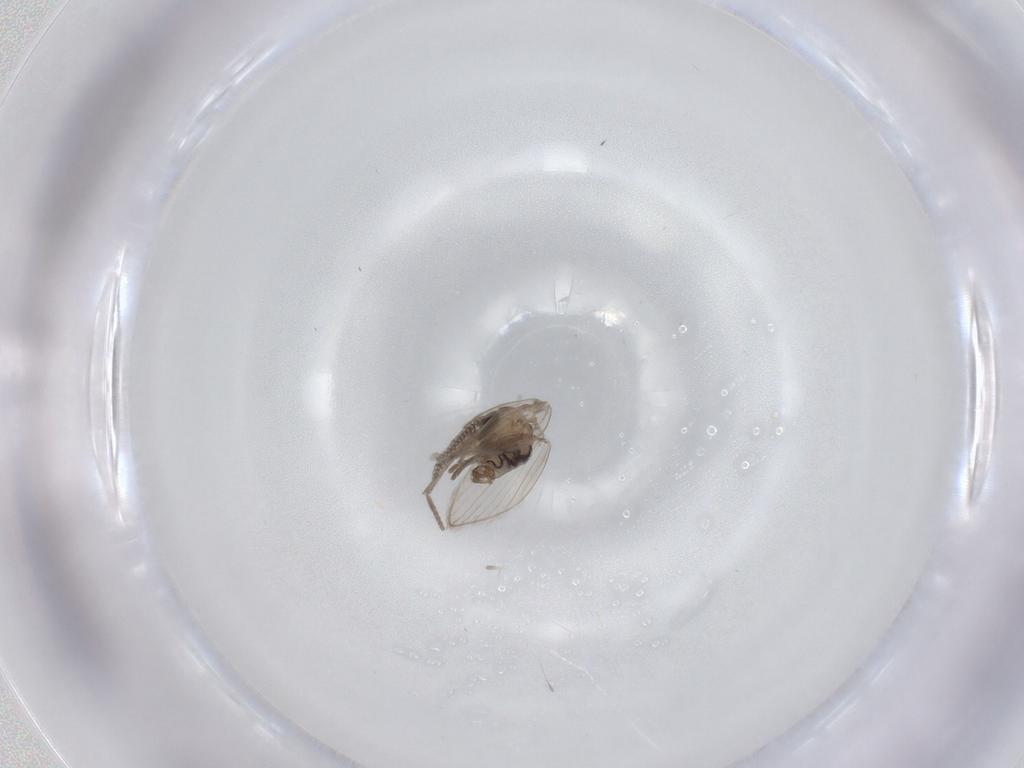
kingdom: Animalia
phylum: Arthropoda
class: Insecta
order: Diptera
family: Psychodidae
